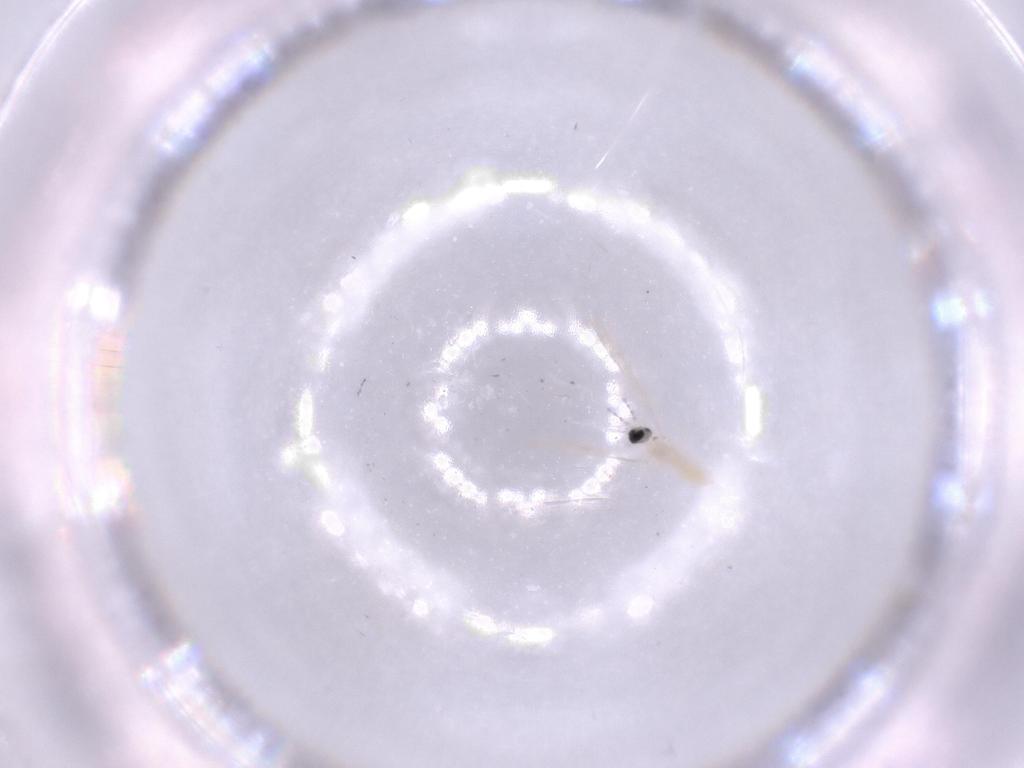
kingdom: Animalia
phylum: Arthropoda
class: Insecta
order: Diptera
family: Cecidomyiidae
